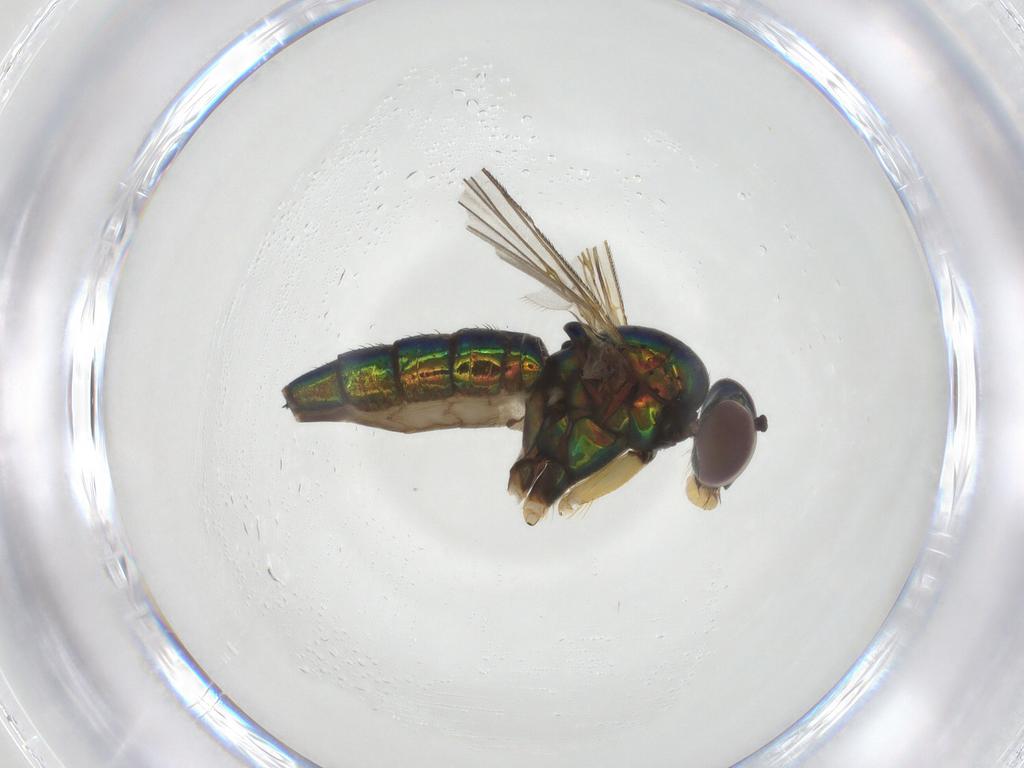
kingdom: Animalia
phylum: Arthropoda
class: Insecta
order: Diptera
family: Dolichopodidae
